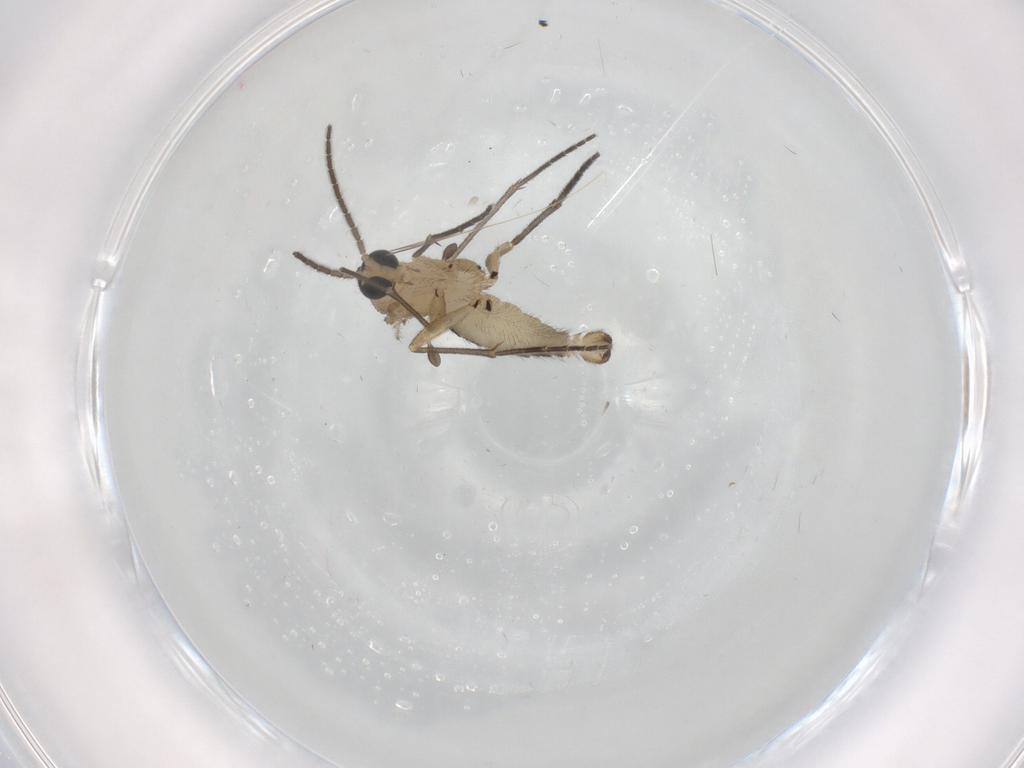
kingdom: Animalia
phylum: Arthropoda
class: Insecta
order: Diptera
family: Sciaridae
